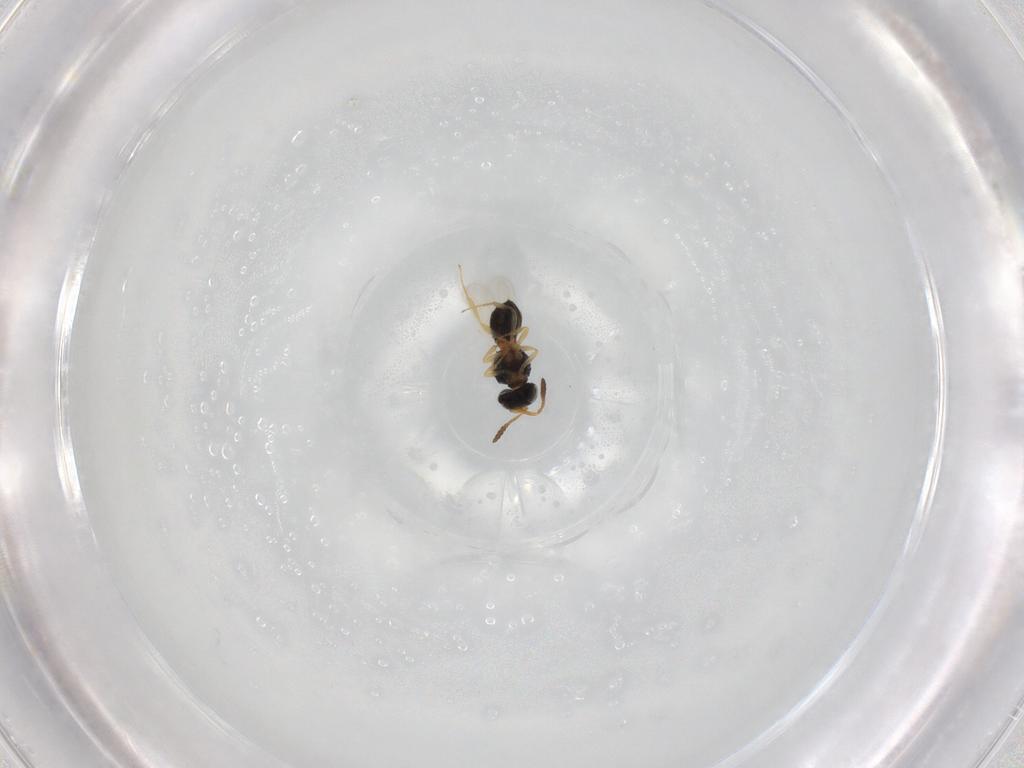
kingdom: Animalia
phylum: Arthropoda
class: Insecta
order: Hymenoptera
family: Scelionidae
